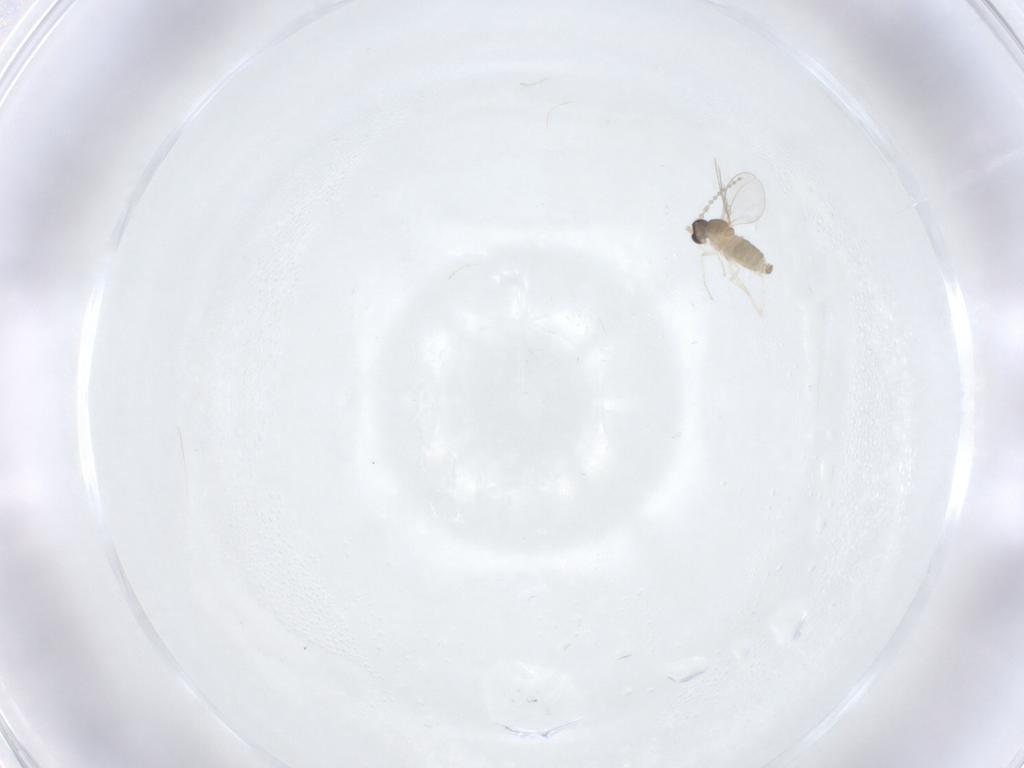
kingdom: Animalia
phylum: Arthropoda
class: Insecta
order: Diptera
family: Cecidomyiidae
